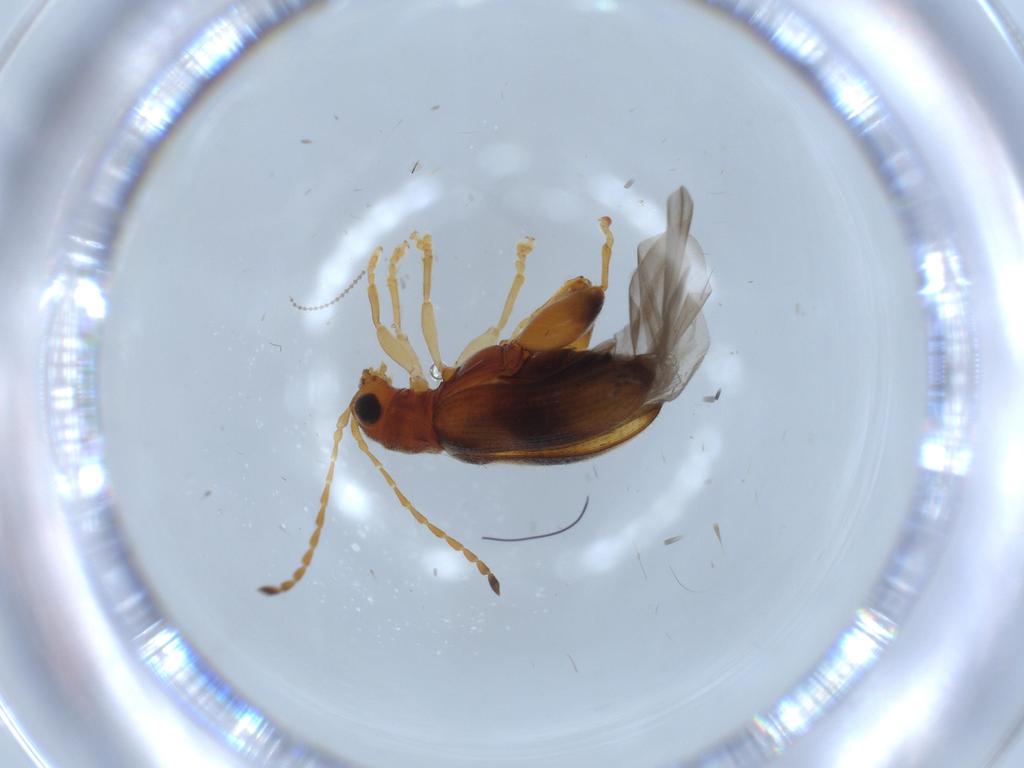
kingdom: Animalia
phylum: Arthropoda
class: Insecta
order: Coleoptera
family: Chrysomelidae
